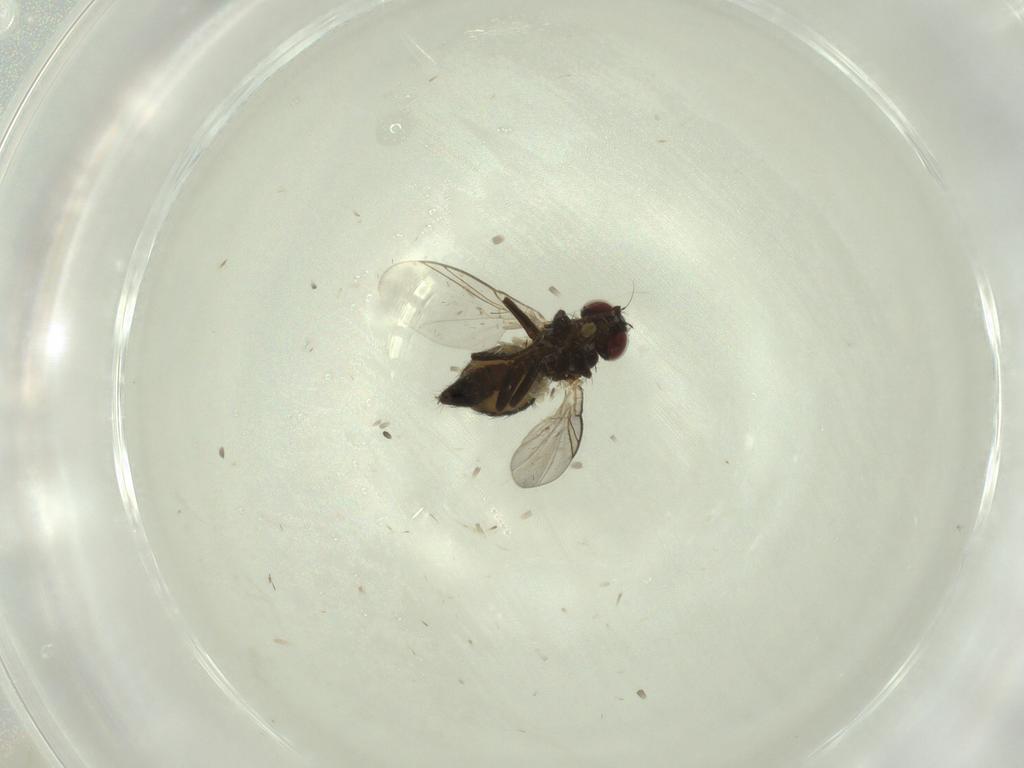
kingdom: Animalia
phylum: Arthropoda
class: Insecta
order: Diptera
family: Dolichopodidae
